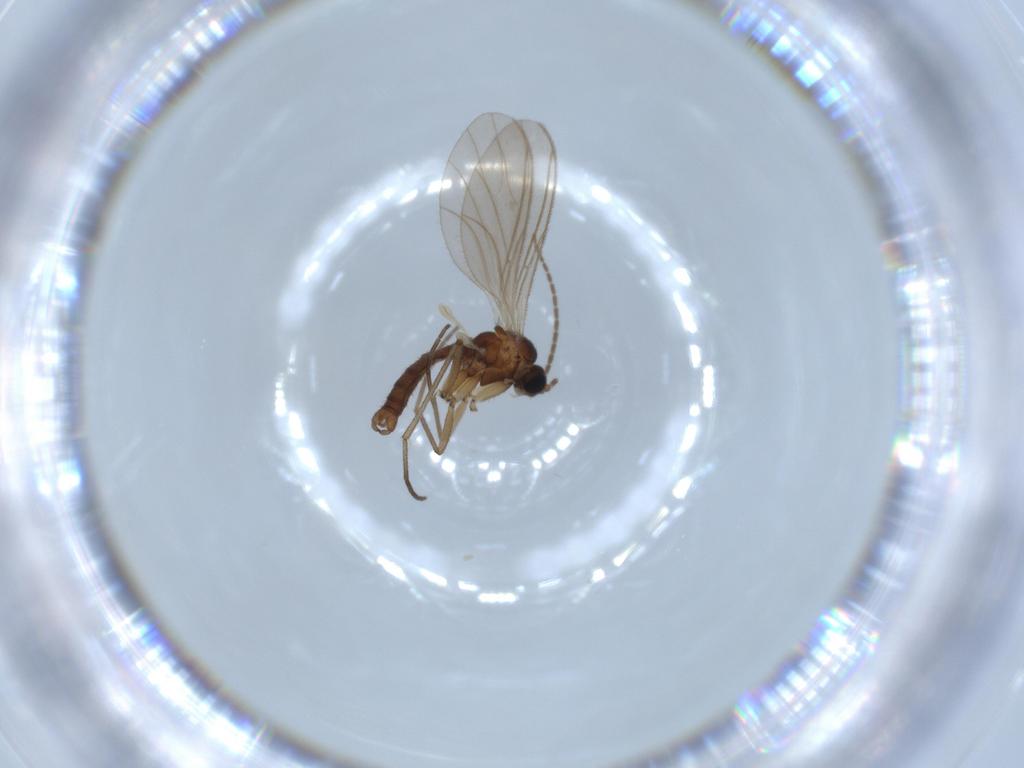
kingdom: Animalia
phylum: Arthropoda
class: Insecta
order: Diptera
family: Sciaridae
